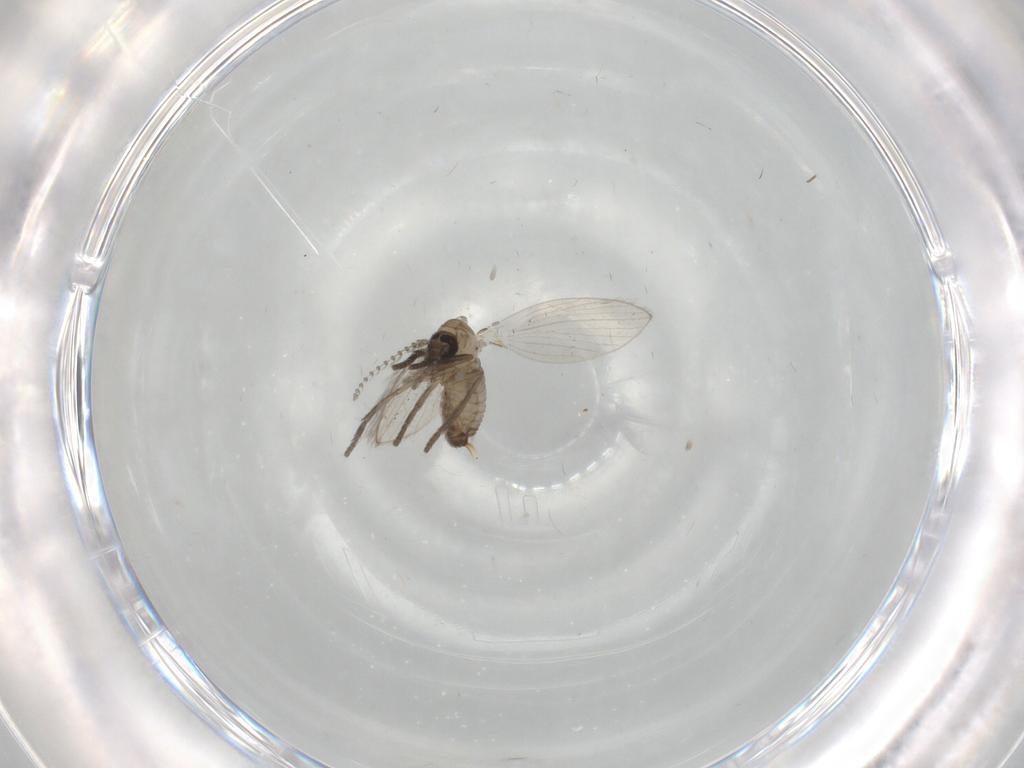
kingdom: Animalia
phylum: Arthropoda
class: Insecta
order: Diptera
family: Psychodidae
